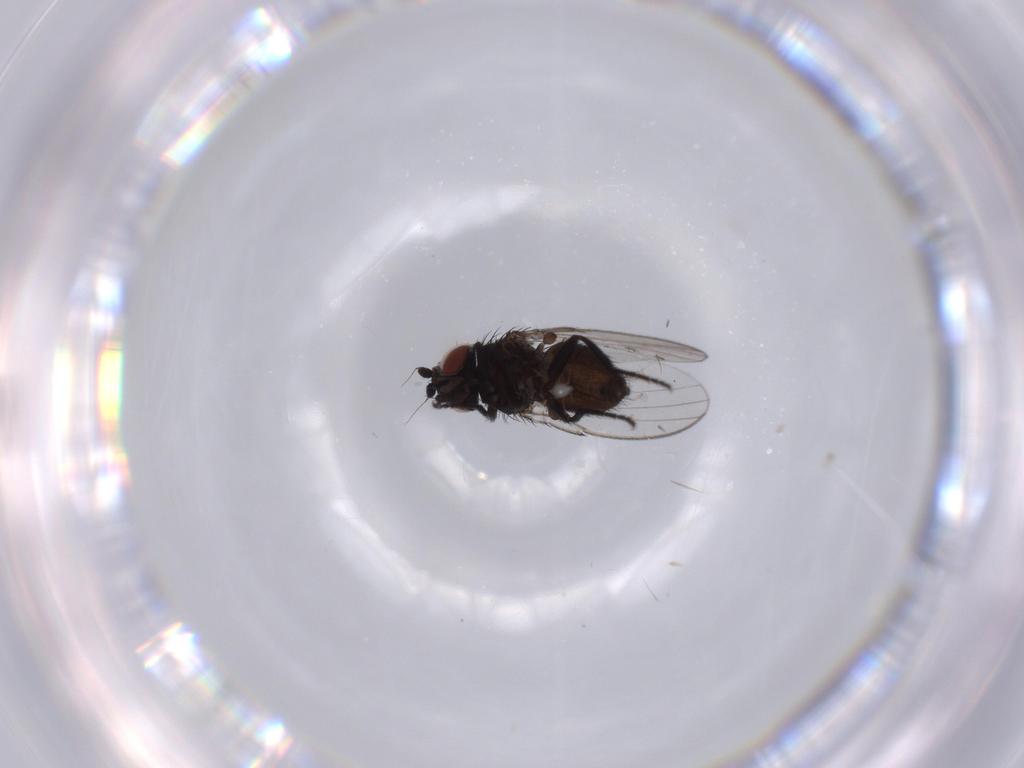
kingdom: Animalia
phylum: Arthropoda
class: Insecta
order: Diptera
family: Milichiidae
